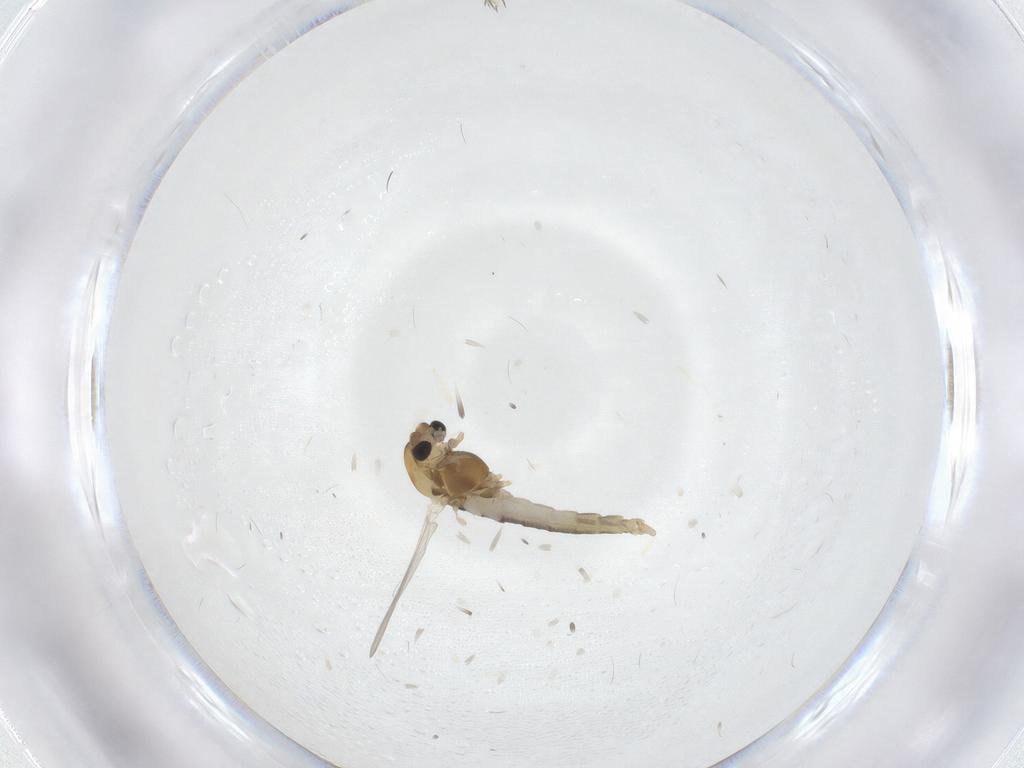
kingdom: Animalia
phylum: Arthropoda
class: Insecta
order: Diptera
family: Chironomidae
